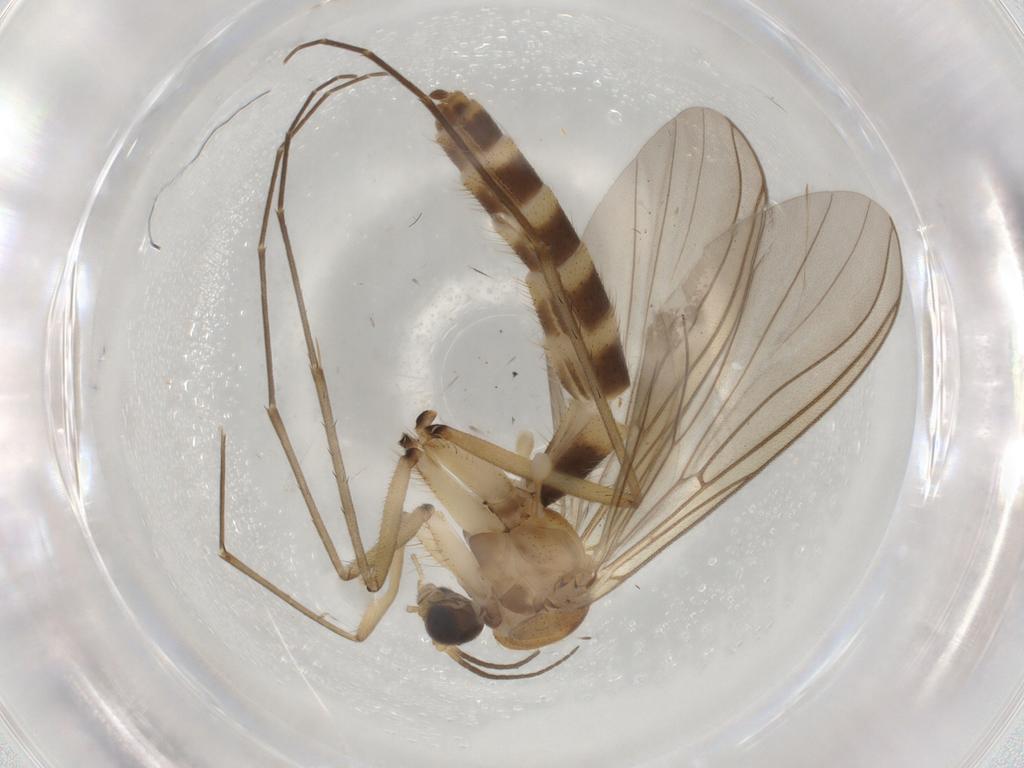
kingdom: Animalia
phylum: Arthropoda
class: Insecta
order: Diptera
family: Mycetophilidae
